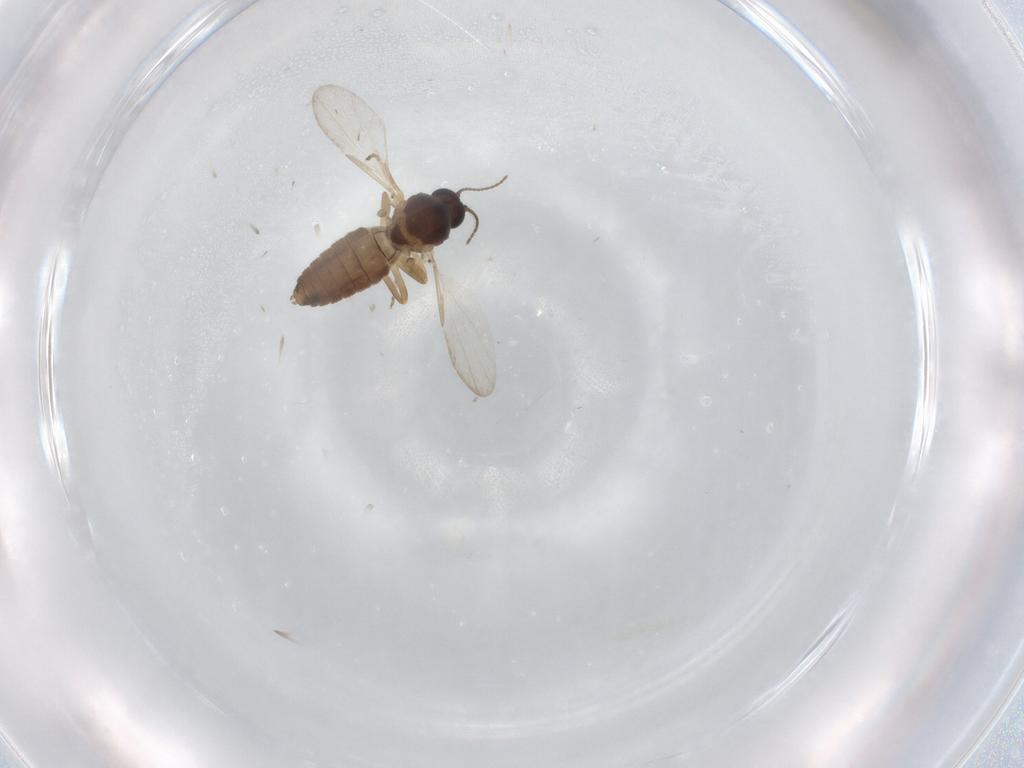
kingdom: Animalia
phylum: Arthropoda
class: Insecta
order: Diptera
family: Ceratopogonidae
